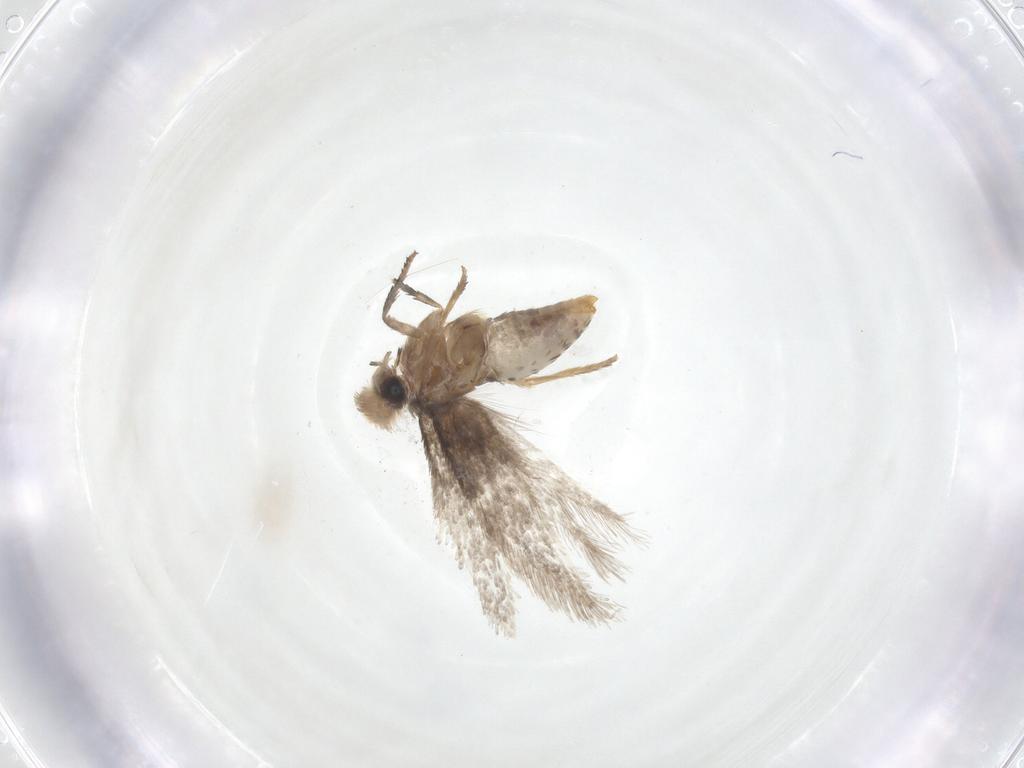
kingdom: Animalia
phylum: Arthropoda
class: Insecta
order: Lepidoptera
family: Nepticulidae
